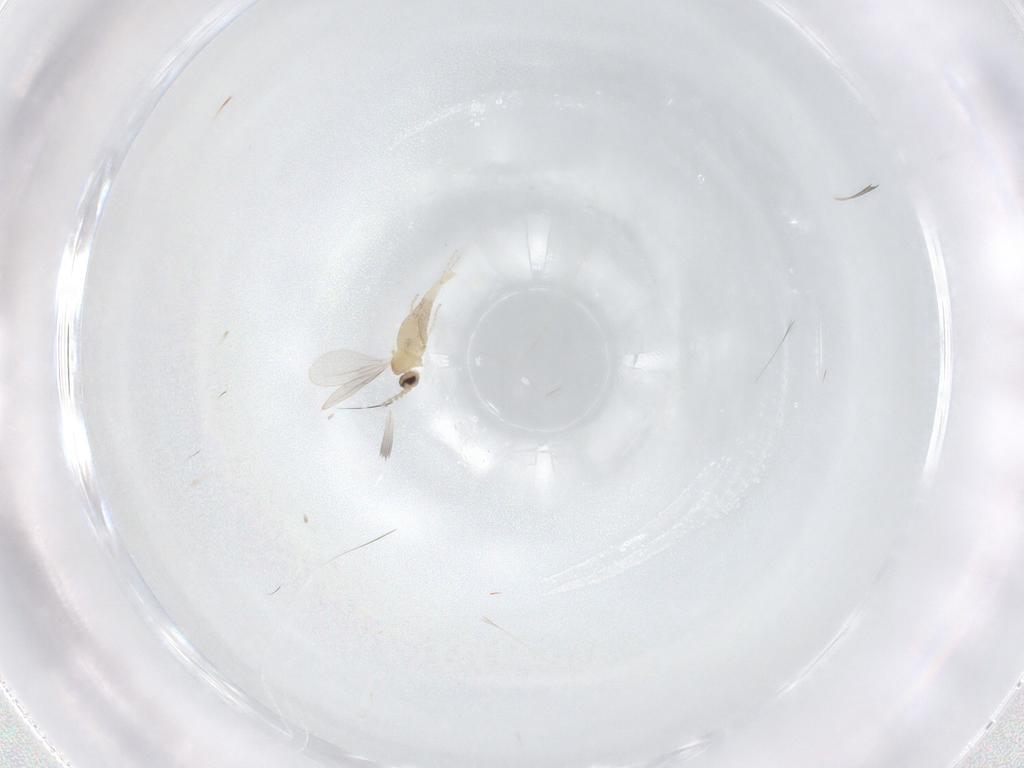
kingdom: Animalia
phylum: Arthropoda
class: Insecta
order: Diptera
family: Cecidomyiidae
